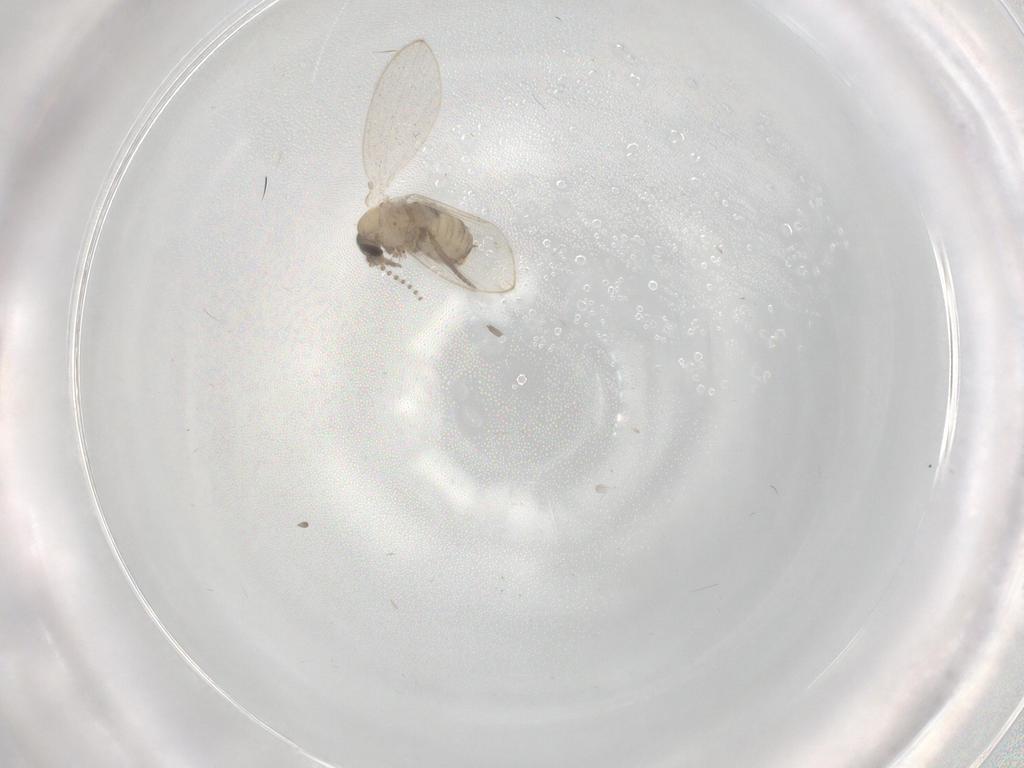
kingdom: Animalia
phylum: Arthropoda
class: Insecta
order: Diptera
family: Psychodidae
